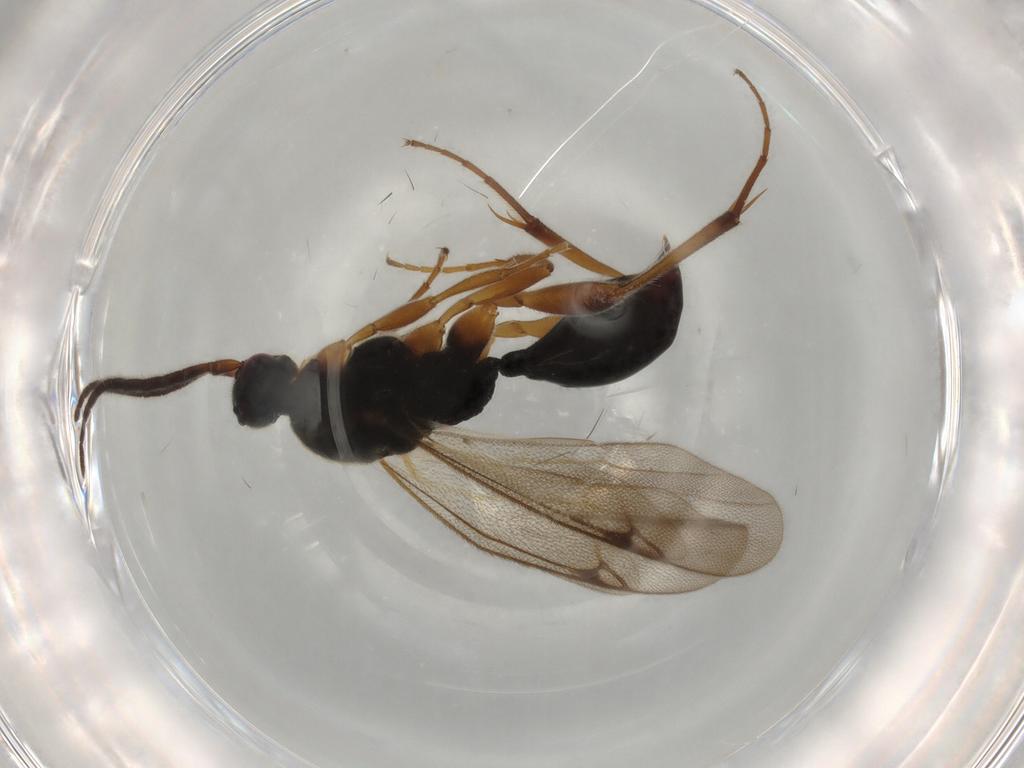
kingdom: Animalia
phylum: Arthropoda
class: Insecta
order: Hymenoptera
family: Proctotrupidae
